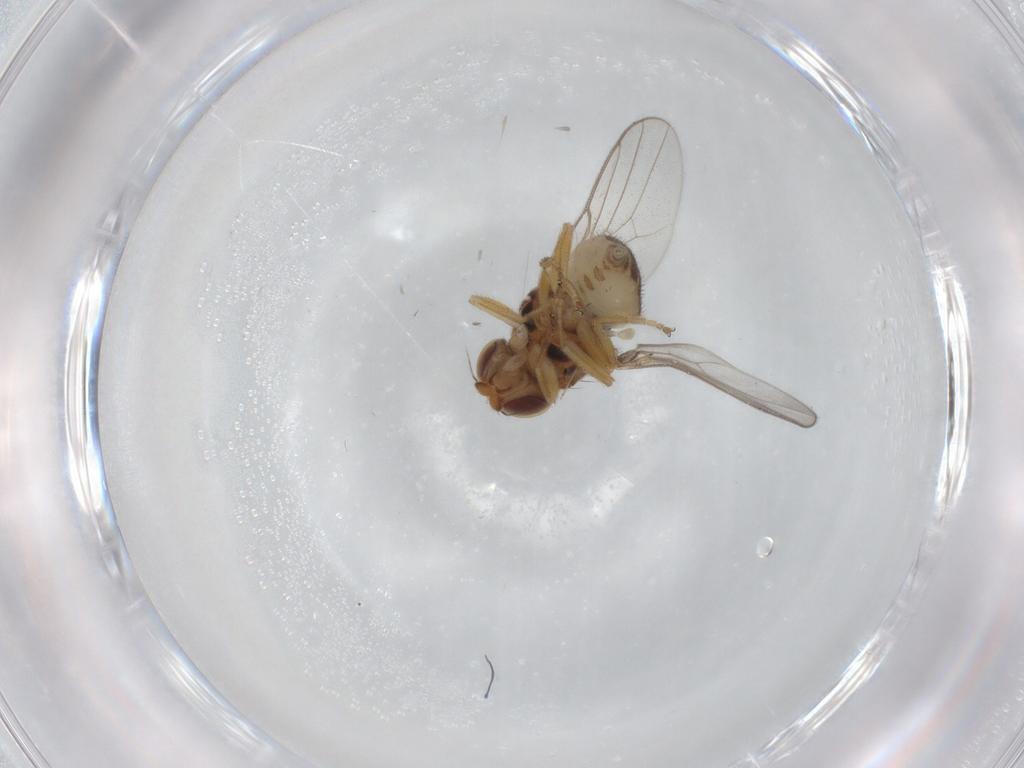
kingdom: Animalia
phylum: Arthropoda
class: Insecta
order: Diptera
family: Chloropidae
